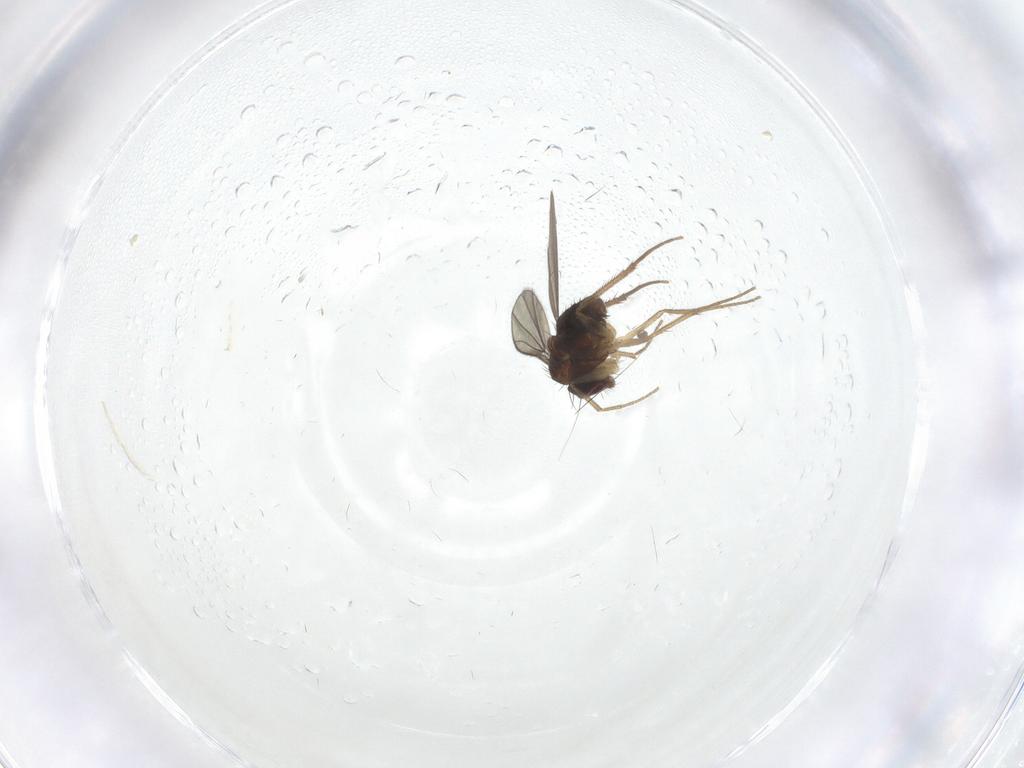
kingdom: Animalia
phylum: Arthropoda
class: Insecta
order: Diptera
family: Dolichopodidae
